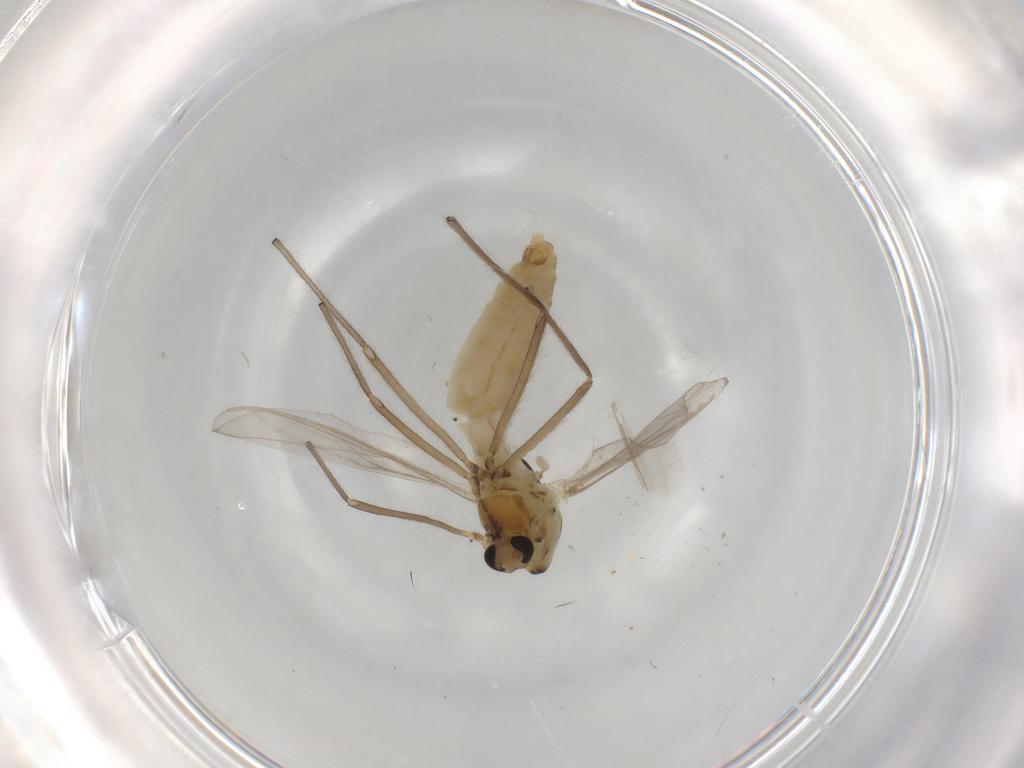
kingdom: Animalia
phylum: Arthropoda
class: Insecta
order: Diptera
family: Chironomidae
